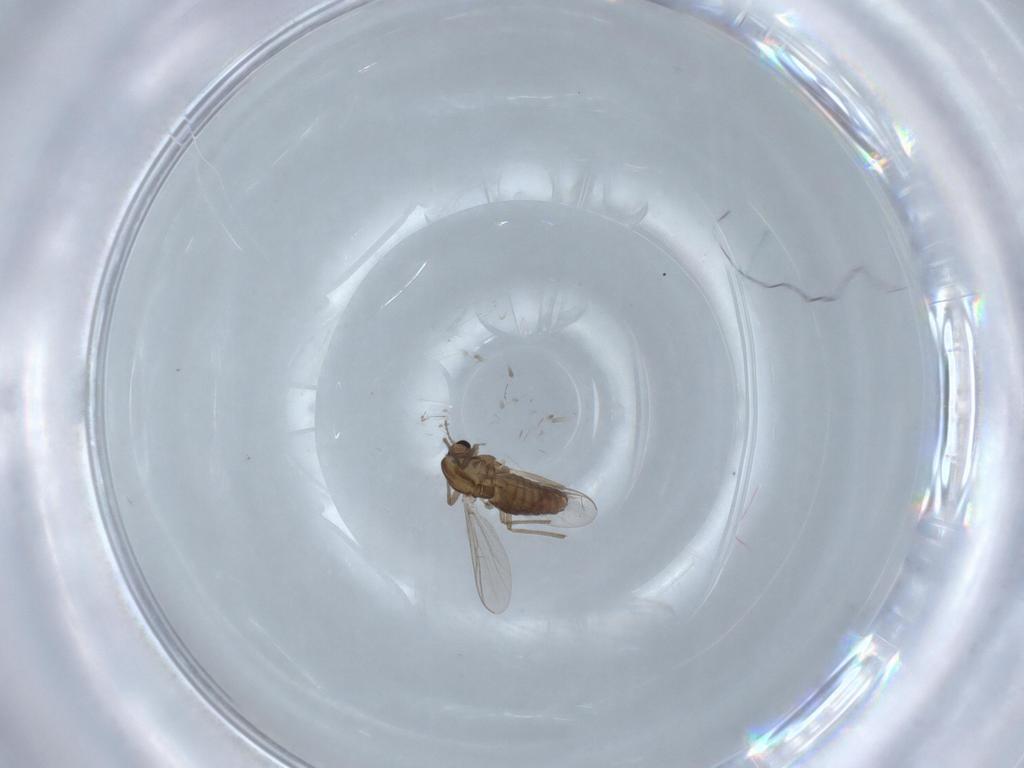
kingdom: Animalia
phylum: Arthropoda
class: Insecta
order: Diptera
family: Chironomidae
